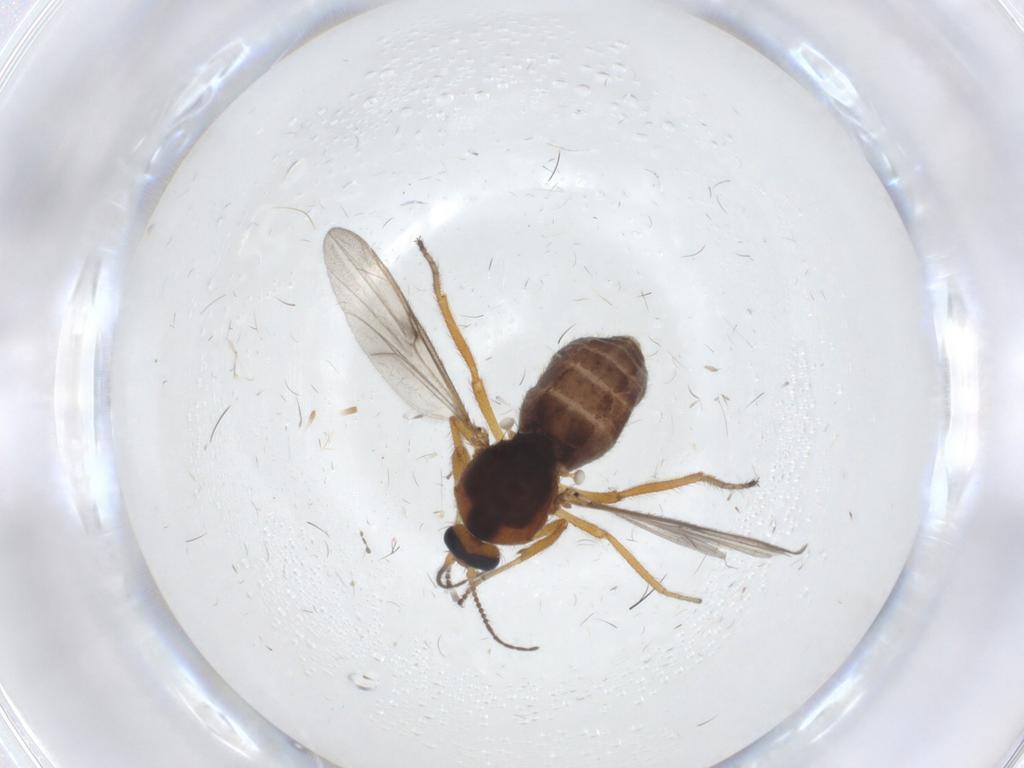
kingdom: Animalia
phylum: Arthropoda
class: Insecta
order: Diptera
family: Ceratopogonidae
